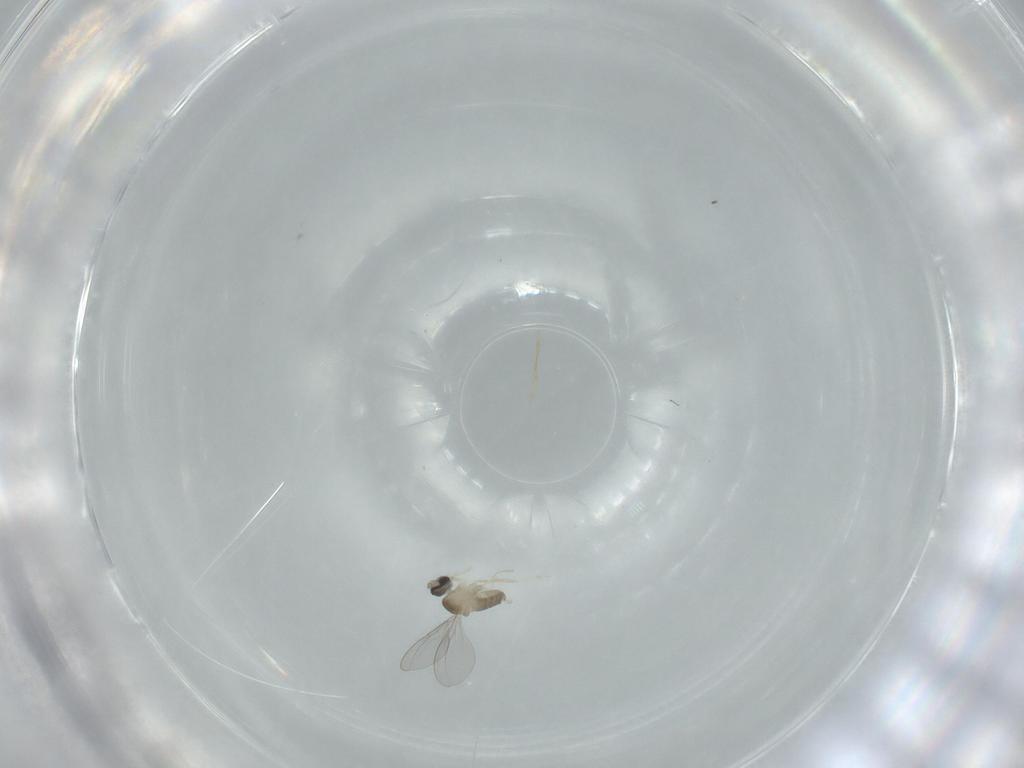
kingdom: Animalia
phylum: Arthropoda
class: Insecta
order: Diptera
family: Cecidomyiidae
